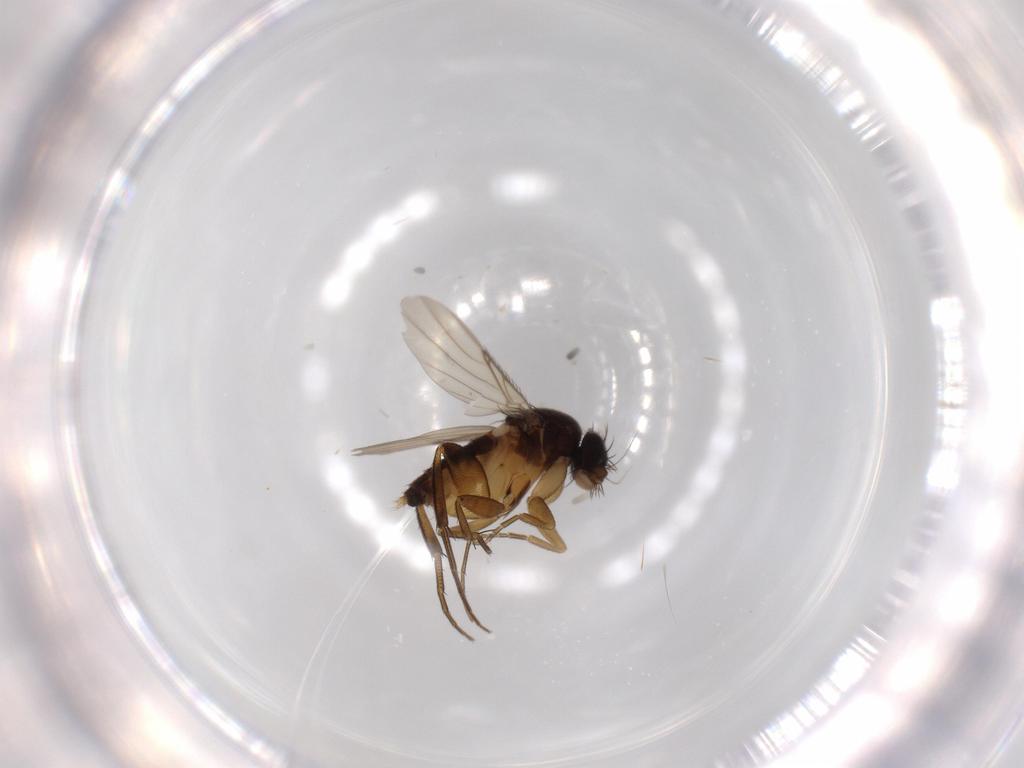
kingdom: Animalia
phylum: Arthropoda
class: Insecta
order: Diptera
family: Phoridae
